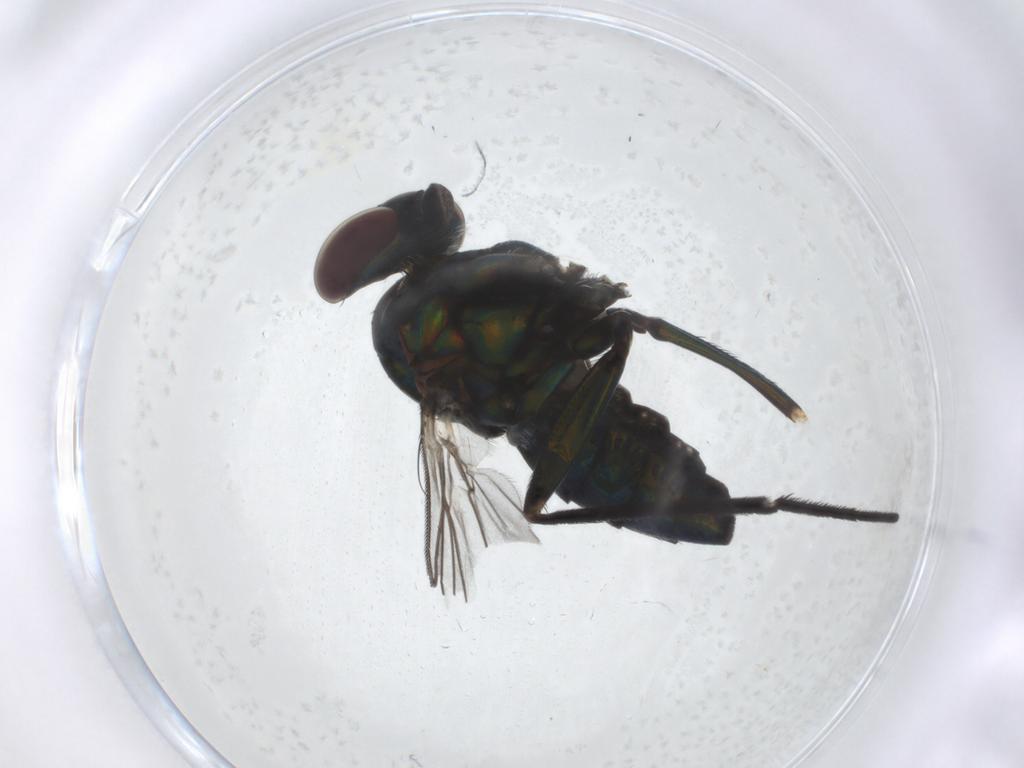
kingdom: Animalia
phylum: Arthropoda
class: Insecta
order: Diptera
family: Dolichopodidae
